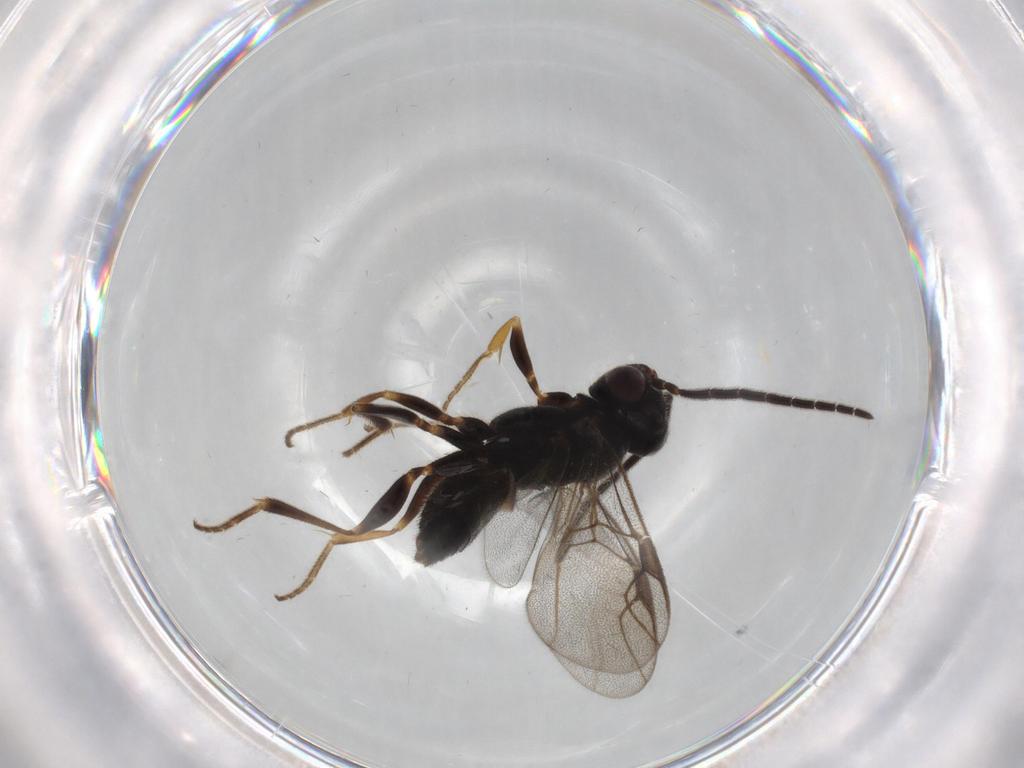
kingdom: Animalia
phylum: Arthropoda
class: Insecta
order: Hymenoptera
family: Dryinidae
